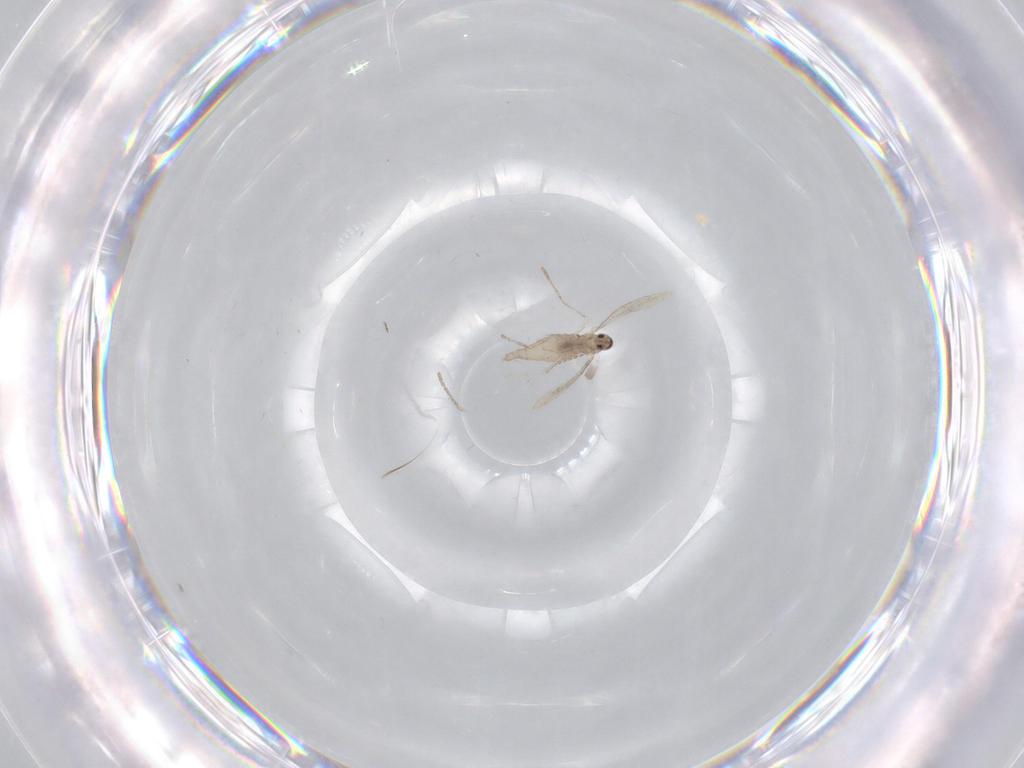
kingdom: Animalia
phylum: Arthropoda
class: Insecta
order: Diptera
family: Cecidomyiidae
